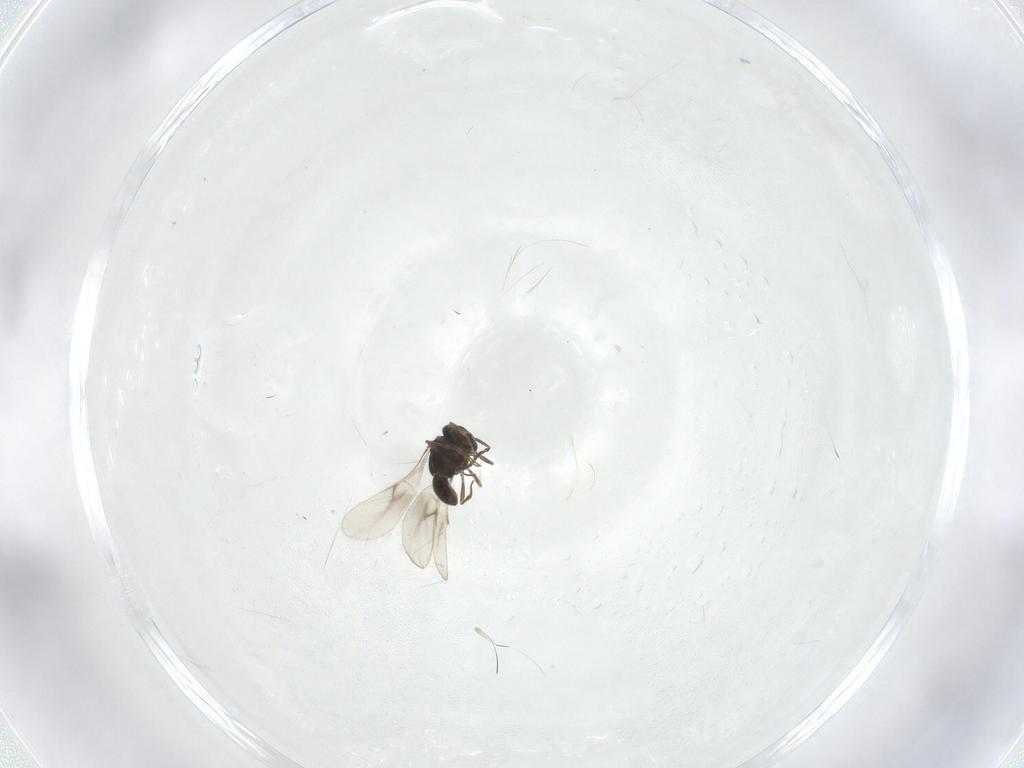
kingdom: Animalia
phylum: Arthropoda
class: Insecta
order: Hymenoptera
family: Scelionidae
